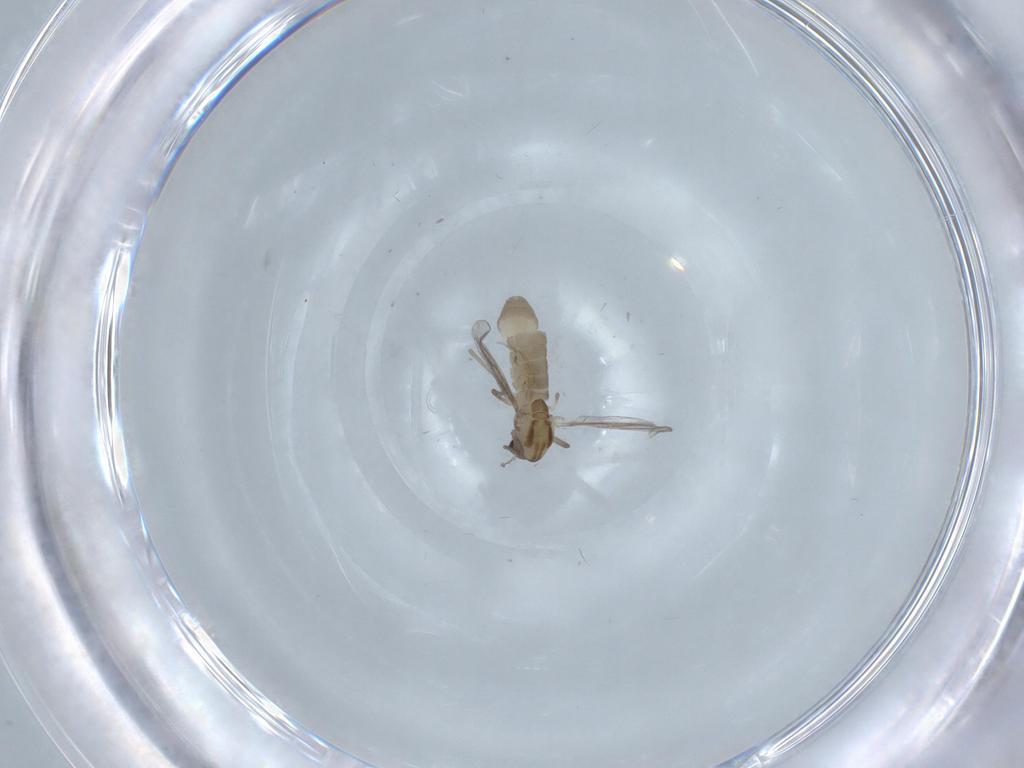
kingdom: Animalia
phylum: Arthropoda
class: Insecta
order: Diptera
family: Chironomidae
